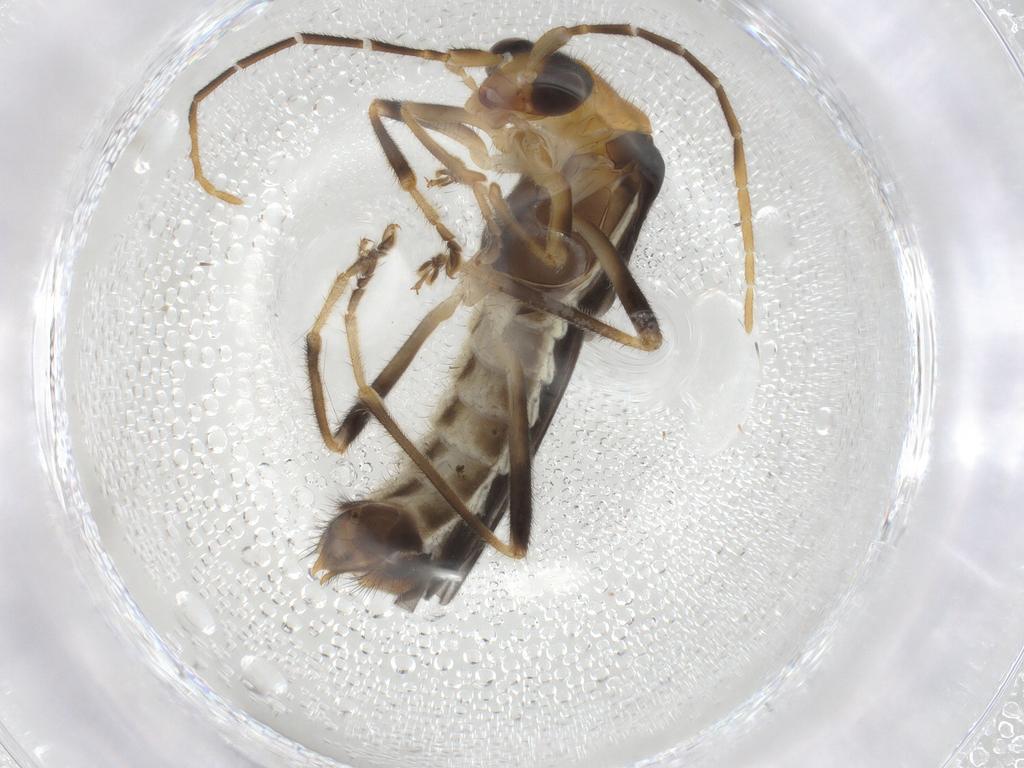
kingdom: Animalia
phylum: Arthropoda
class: Insecta
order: Coleoptera
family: Cantharidae
